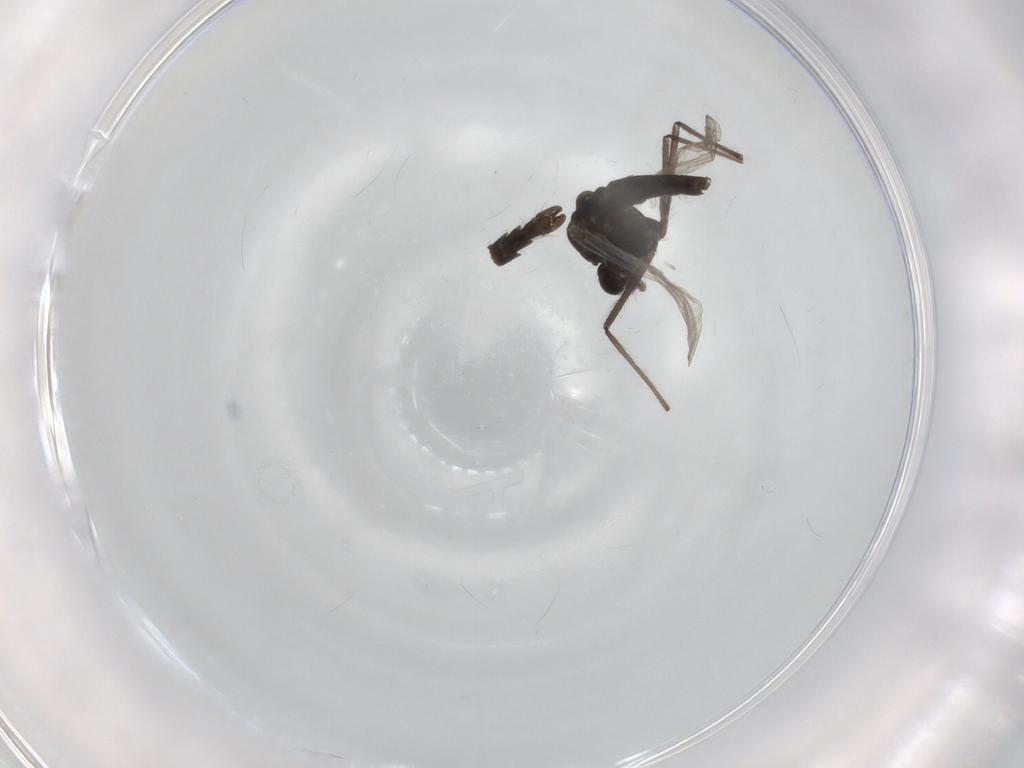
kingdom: Animalia
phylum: Arthropoda
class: Insecta
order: Diptera
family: Chironomidae
